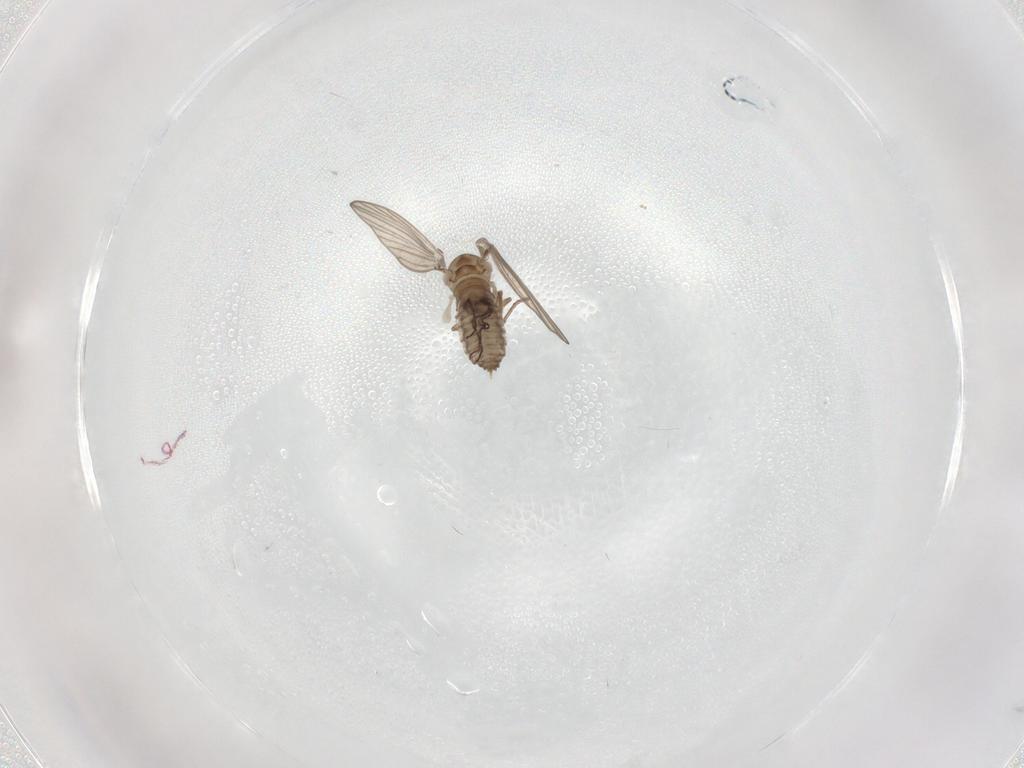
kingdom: Animalia
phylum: Arthropoda
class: Insecta
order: Diptera
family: Psychodidae
